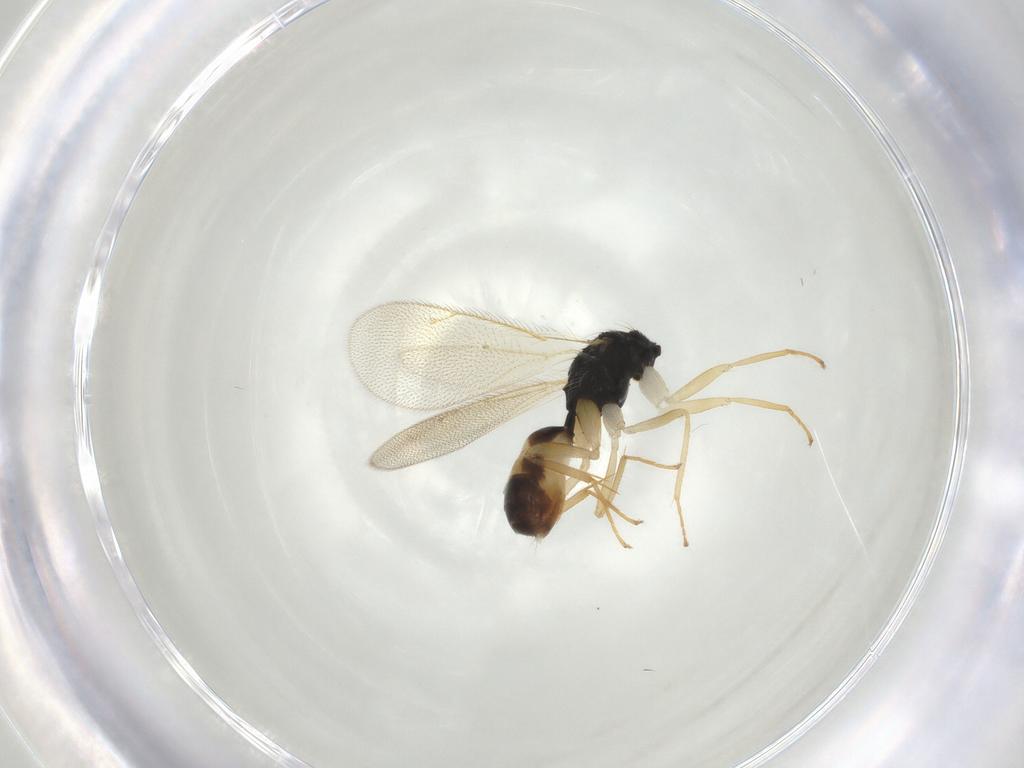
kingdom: Animalia
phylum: Arthropoda
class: Insecta
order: Hymenoptera
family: Eulophidae
